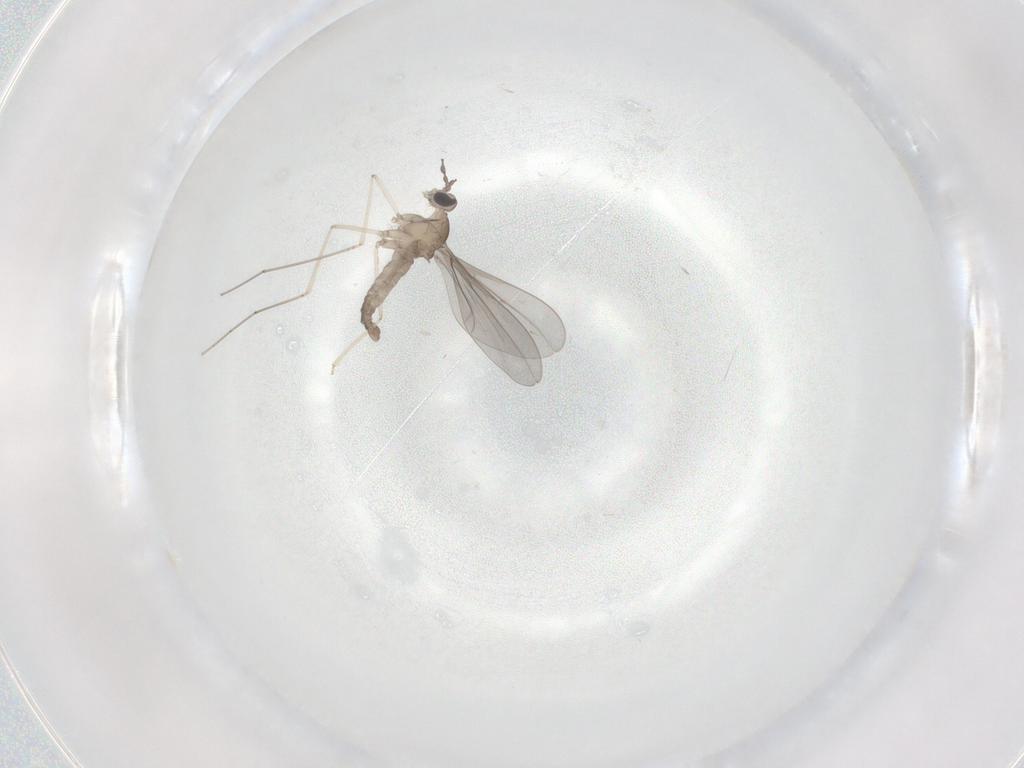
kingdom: Animalia
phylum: Arthropoda
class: Insecta
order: Diptera
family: Cecidomyiidae
